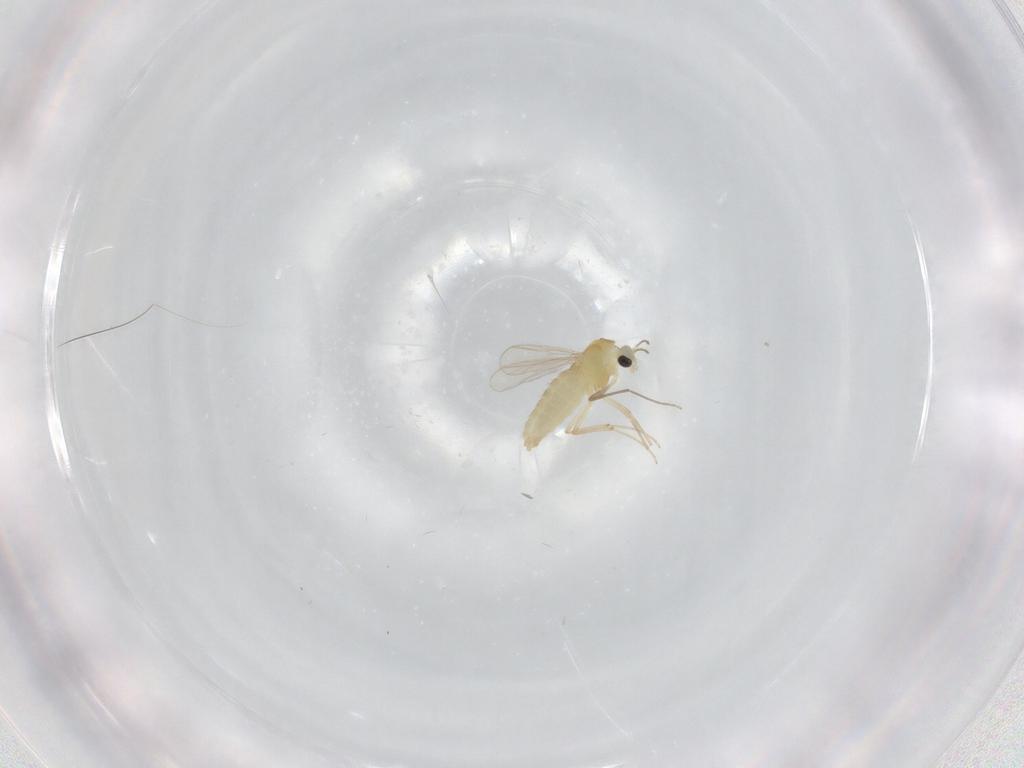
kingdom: Animalia
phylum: Arthropoda
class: Insecta
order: Diptera
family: Chironomidae
